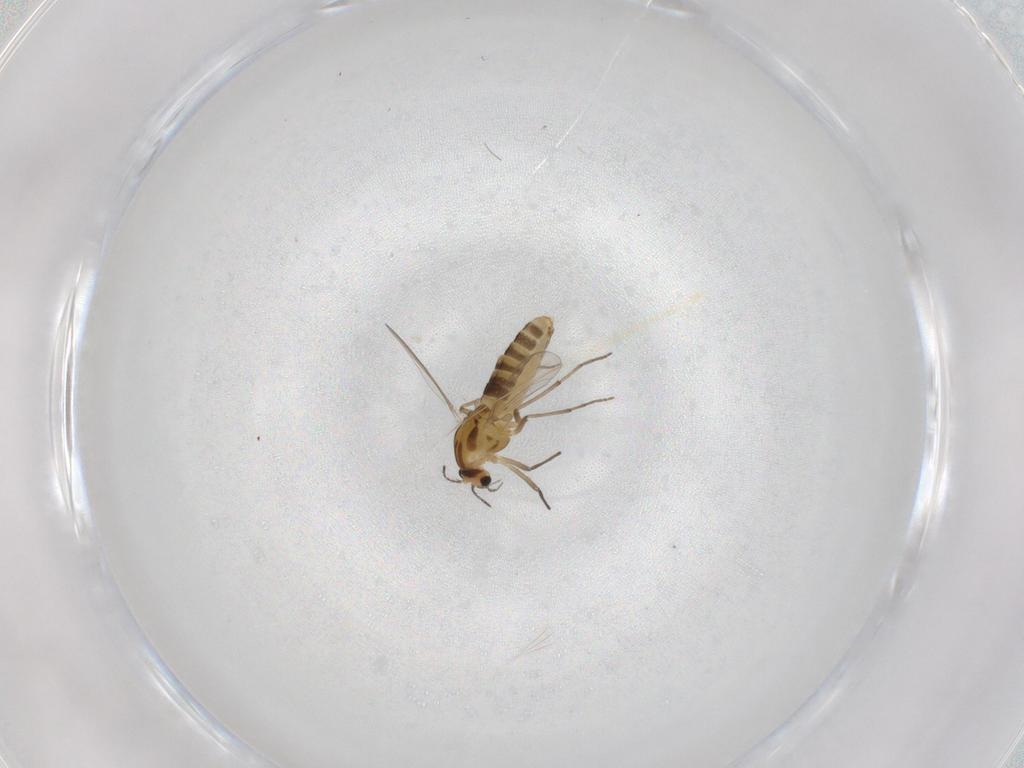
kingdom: Animalia
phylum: Arthropoda
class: Insecta
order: Diptera
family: Chironomidae
